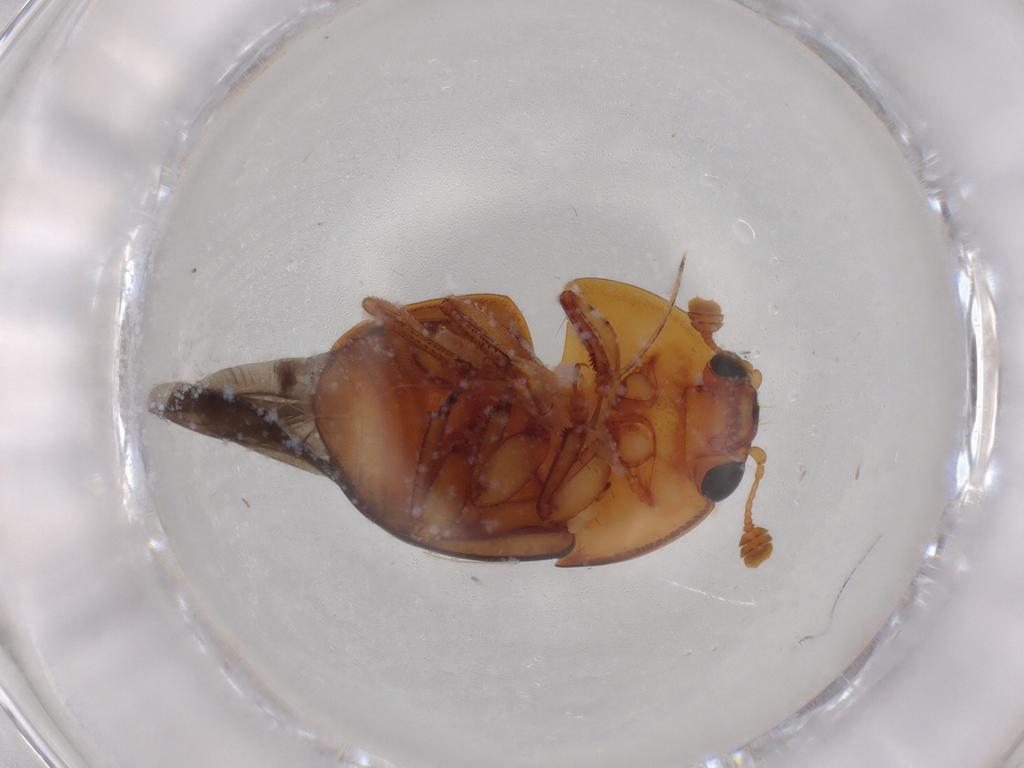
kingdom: Animalia
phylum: Arthropoda
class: Insecta
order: Coleoptera
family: Nitidulidae
